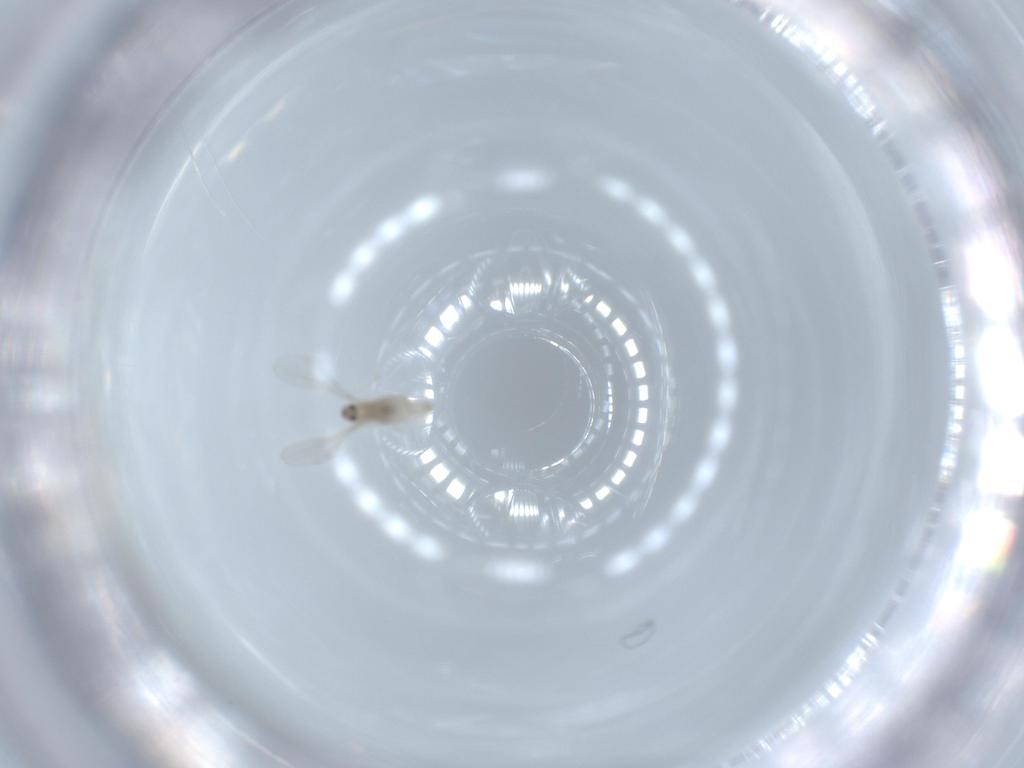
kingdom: Animalia
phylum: Arthropoda
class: Insecta
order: Diptera
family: Cecidomyiidae
